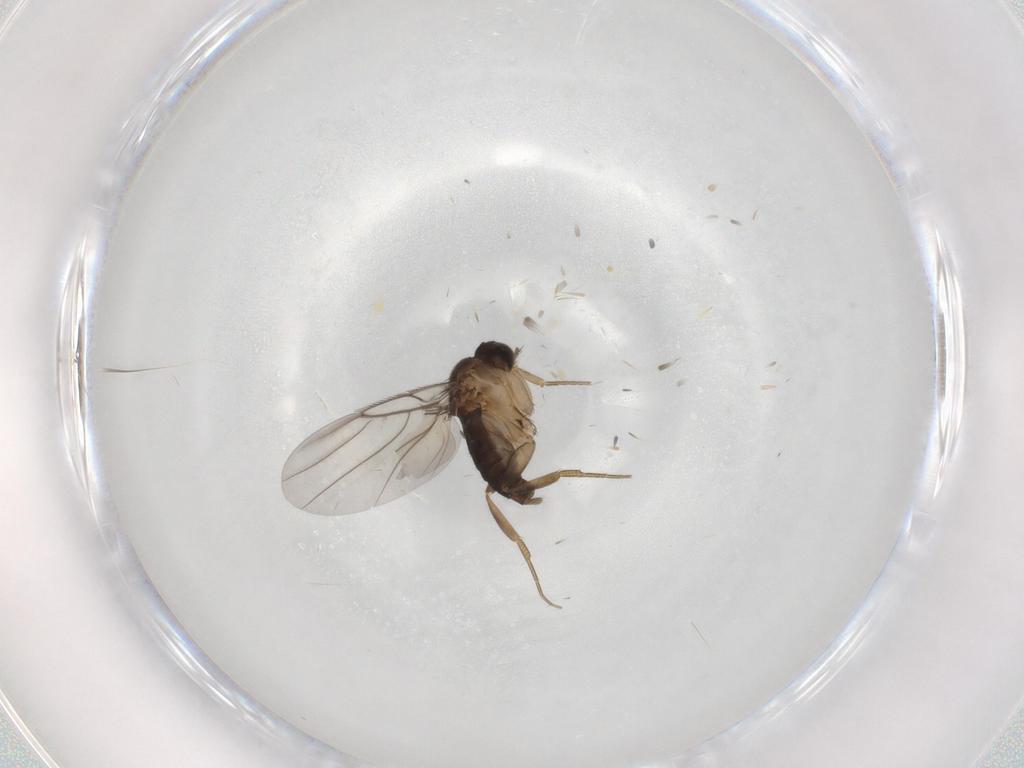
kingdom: Animalia
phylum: Arthropoda
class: Insecta
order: Diptera
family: Phoridae
